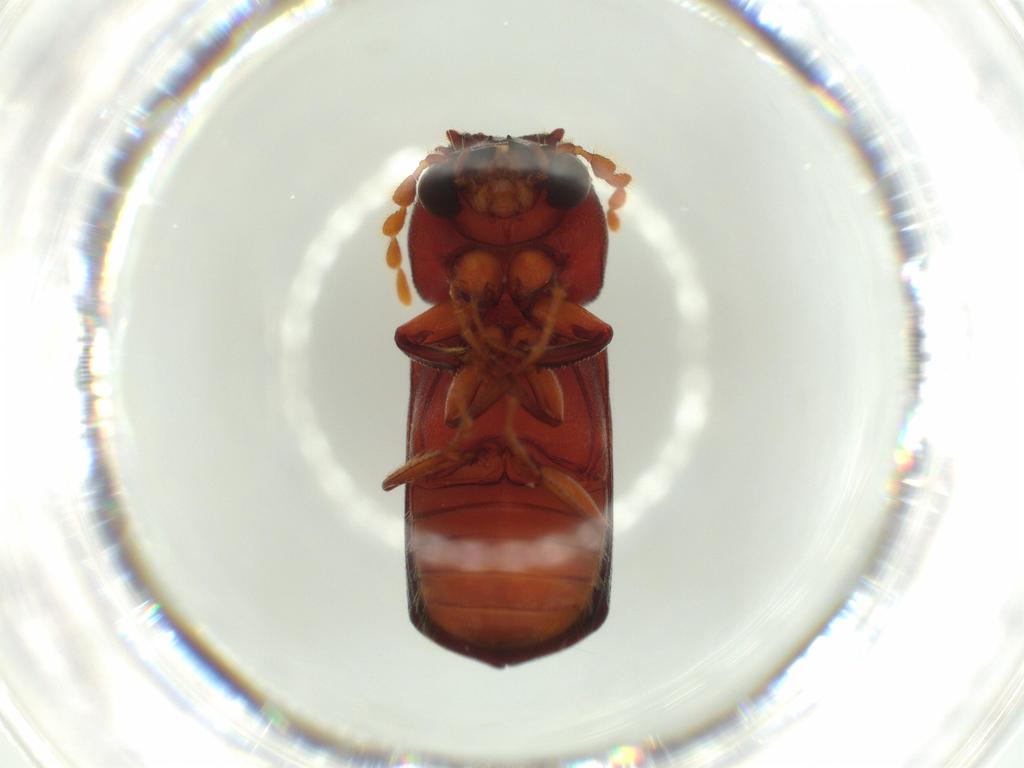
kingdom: Animalia
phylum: Arthropoda
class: Insecta
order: Coleoptera
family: Bostrichidae
